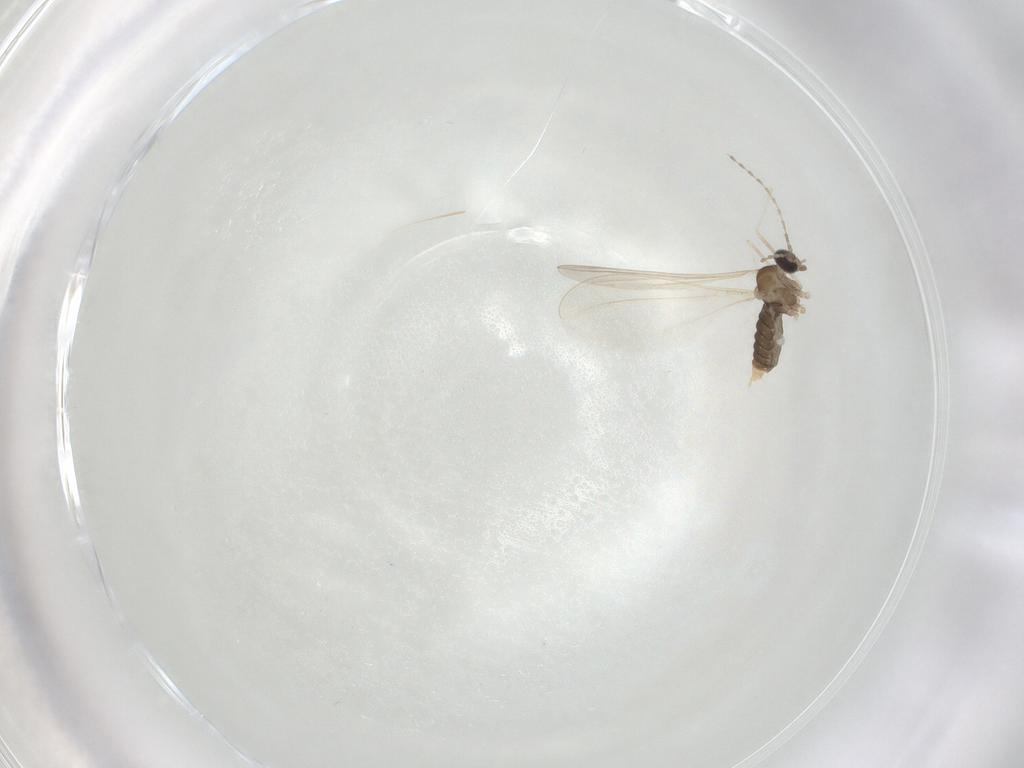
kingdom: Animalia
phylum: Arthropoda
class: Insecta
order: Diptera
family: Cecidomyiidae
